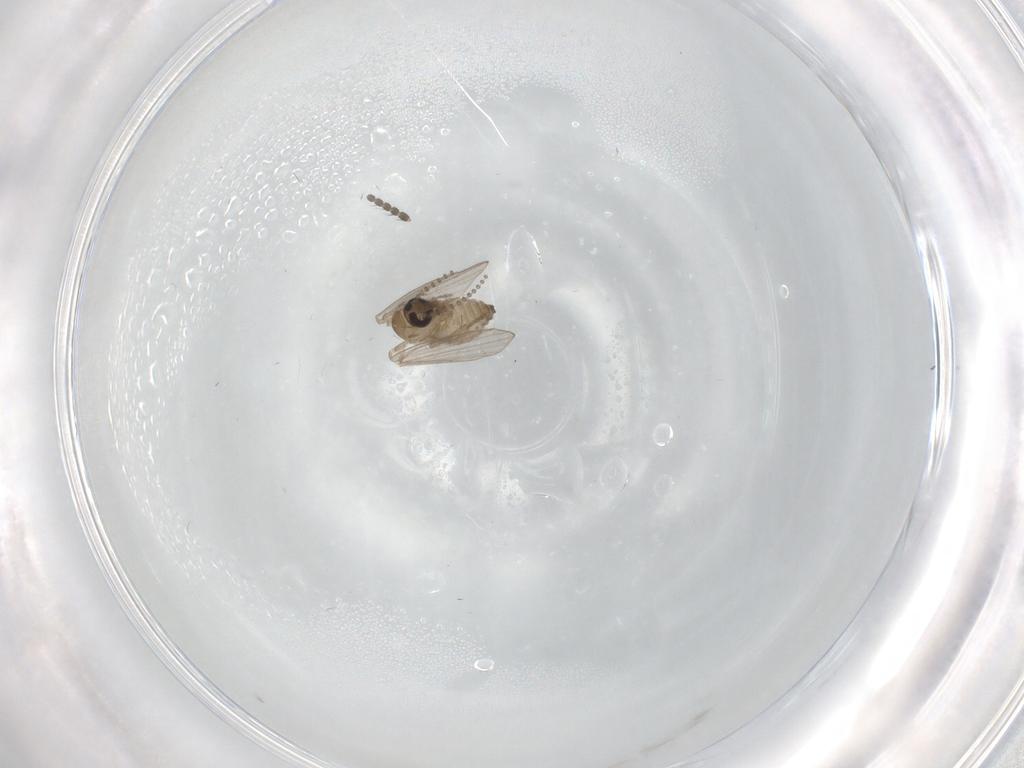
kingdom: Animalia
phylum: Arthropoda
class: Insecta
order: Diptera
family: Limoniidae
